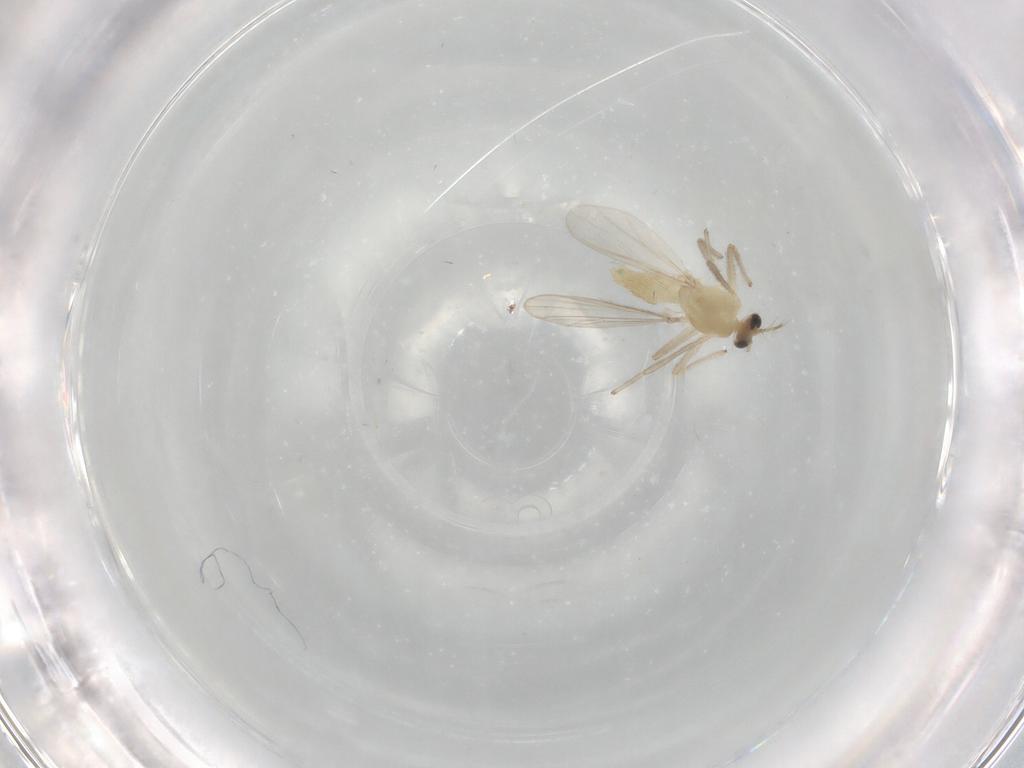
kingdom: Animalia
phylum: Arthropoda
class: Insecta
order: Diptera
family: Chironomidae
